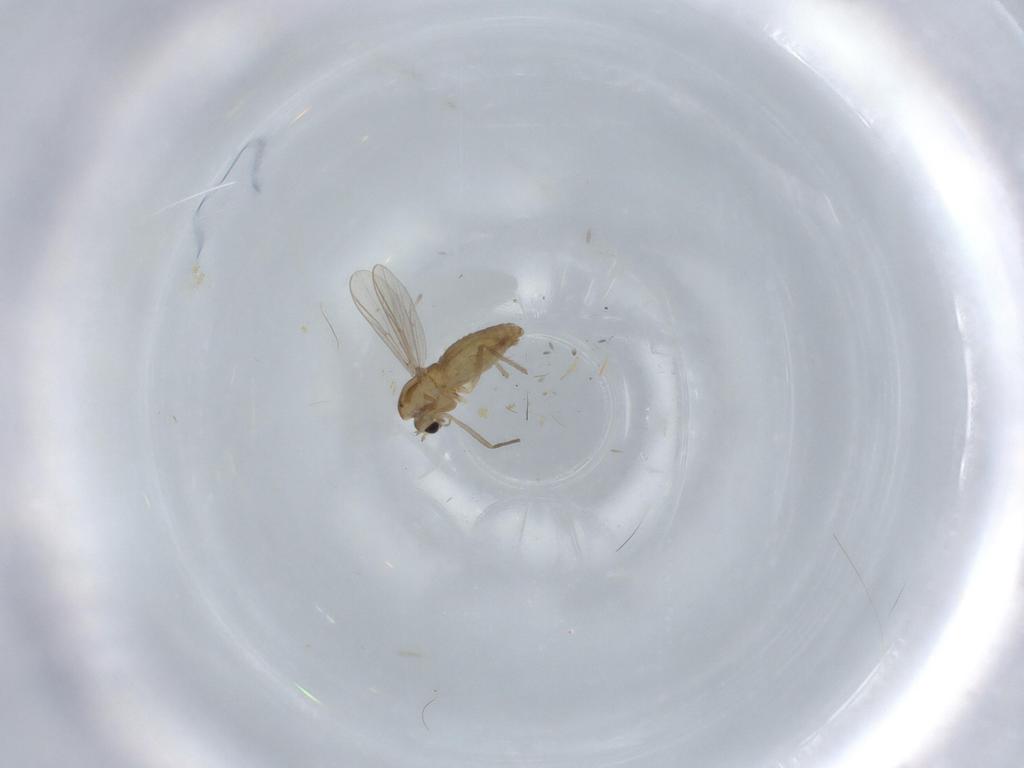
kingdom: Animalia
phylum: Arthropoda
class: Insecta
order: Diptera
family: Chironomidae
